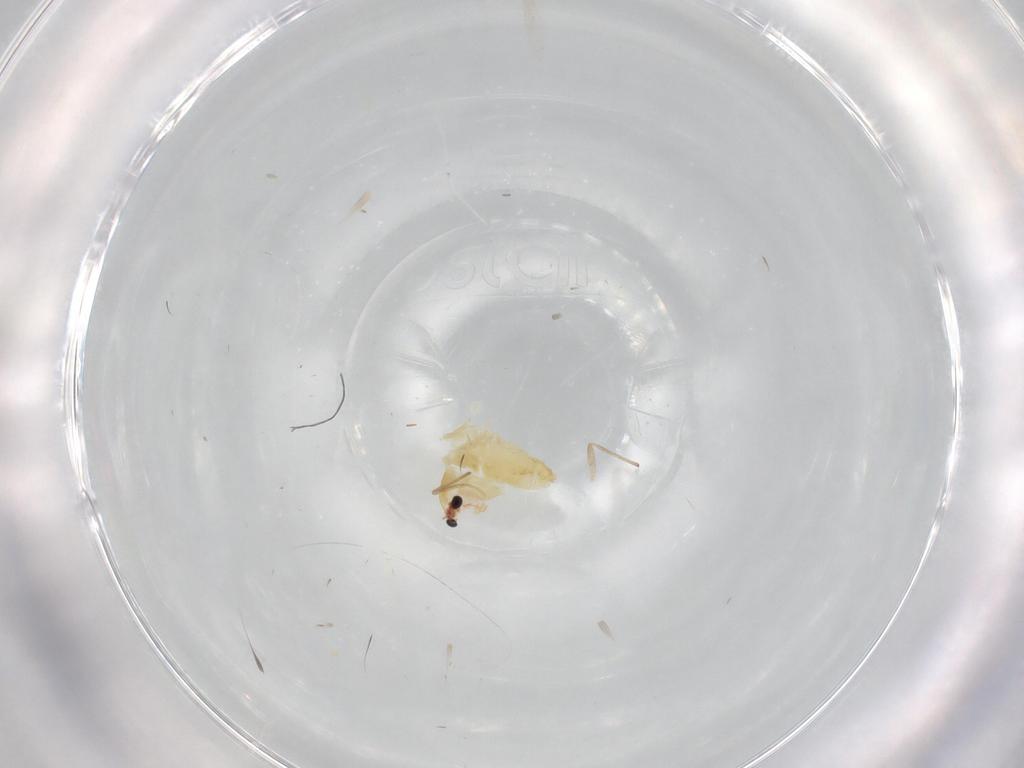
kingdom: Animalia
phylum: Arthropoda
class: Insecta
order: Diptera
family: Chironomidae
